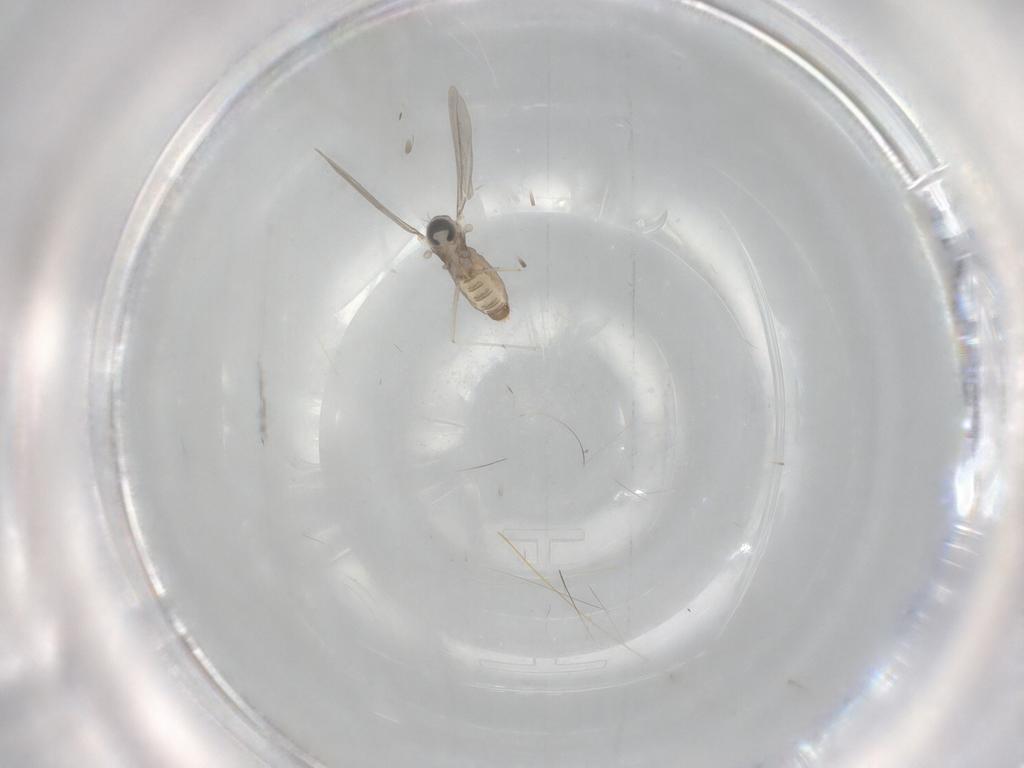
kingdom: Animalia
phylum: Arthropoda
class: Insecta
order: Diptera
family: Cecidomyiidae
